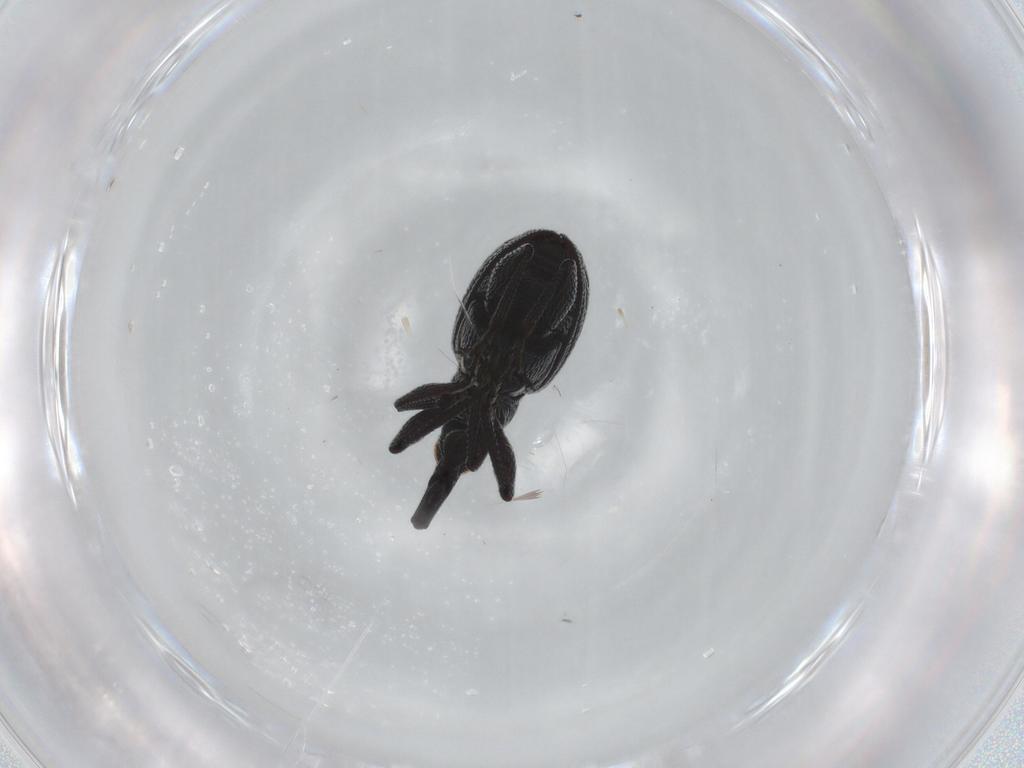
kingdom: Animalia
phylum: Arthropoda
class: Insecta
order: Coleoptera
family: Brentidae
